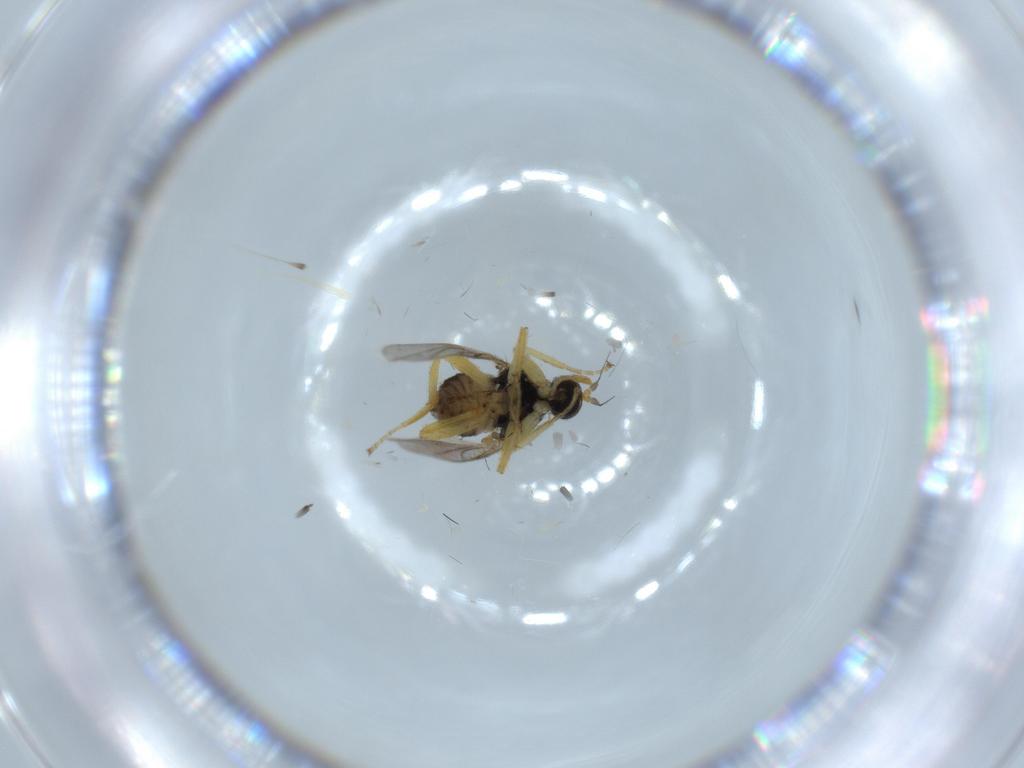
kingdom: Animalia
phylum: Arthropoda
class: Insecta
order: Diptera
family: Hybotidae
